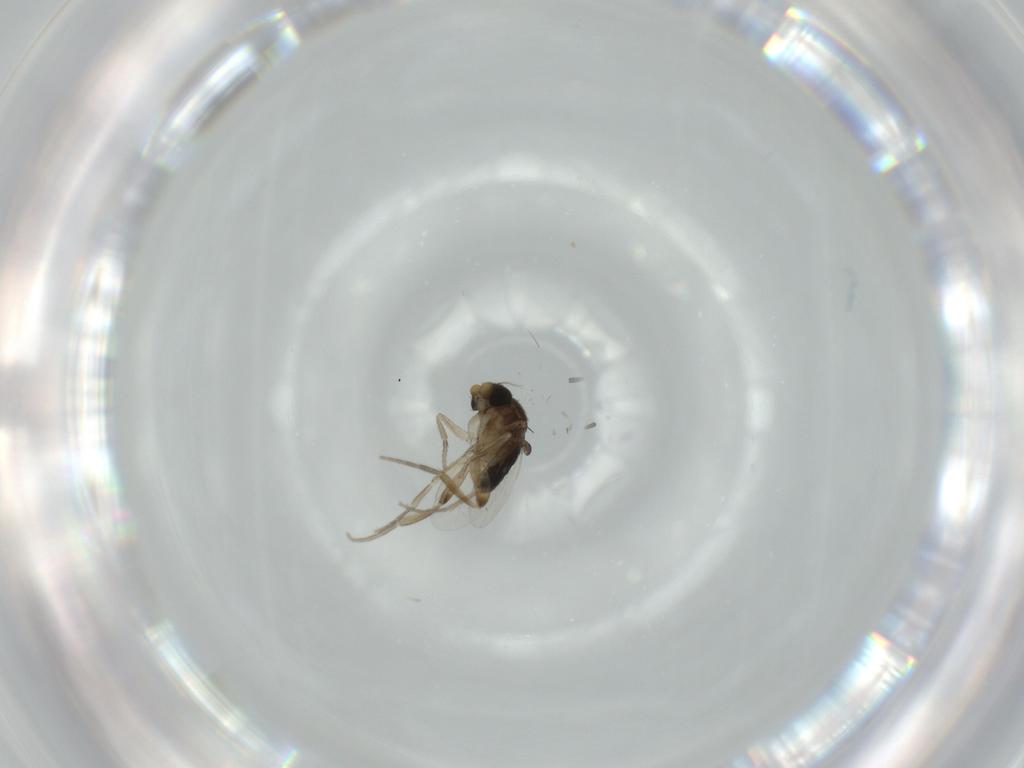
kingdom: Animalia
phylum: Arthropoda
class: Insecta
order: Diptera
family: Phoridae
